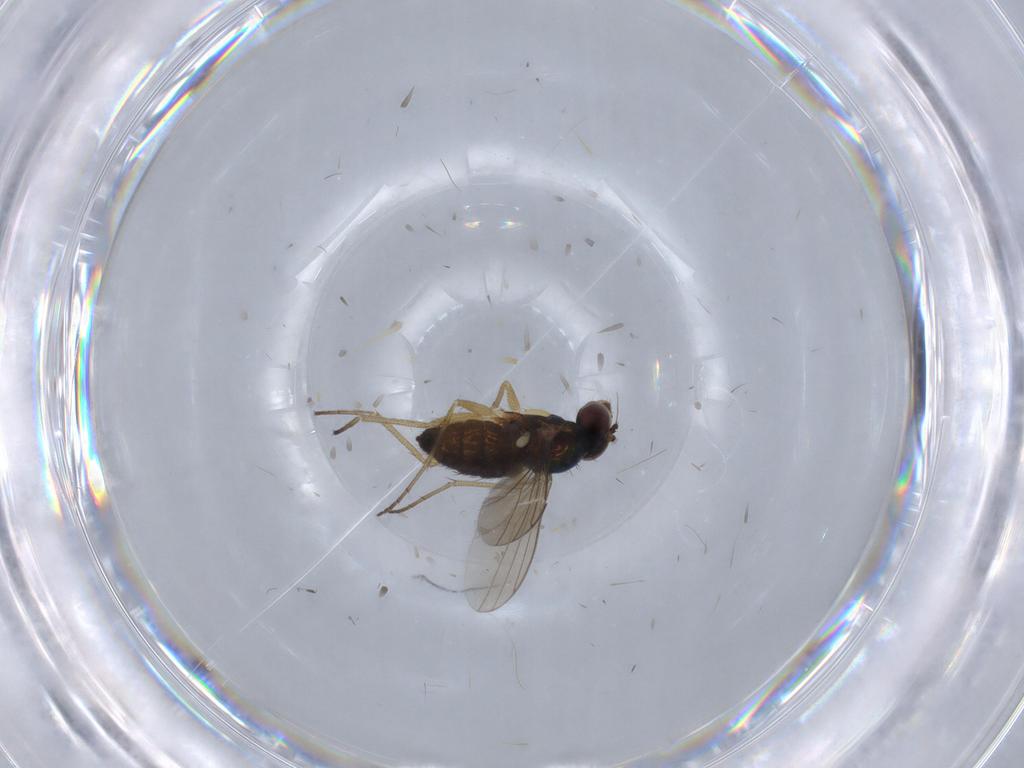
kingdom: Animalia
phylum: Arthropoda
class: Insecta
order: Diptera
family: Dolichopodidae
